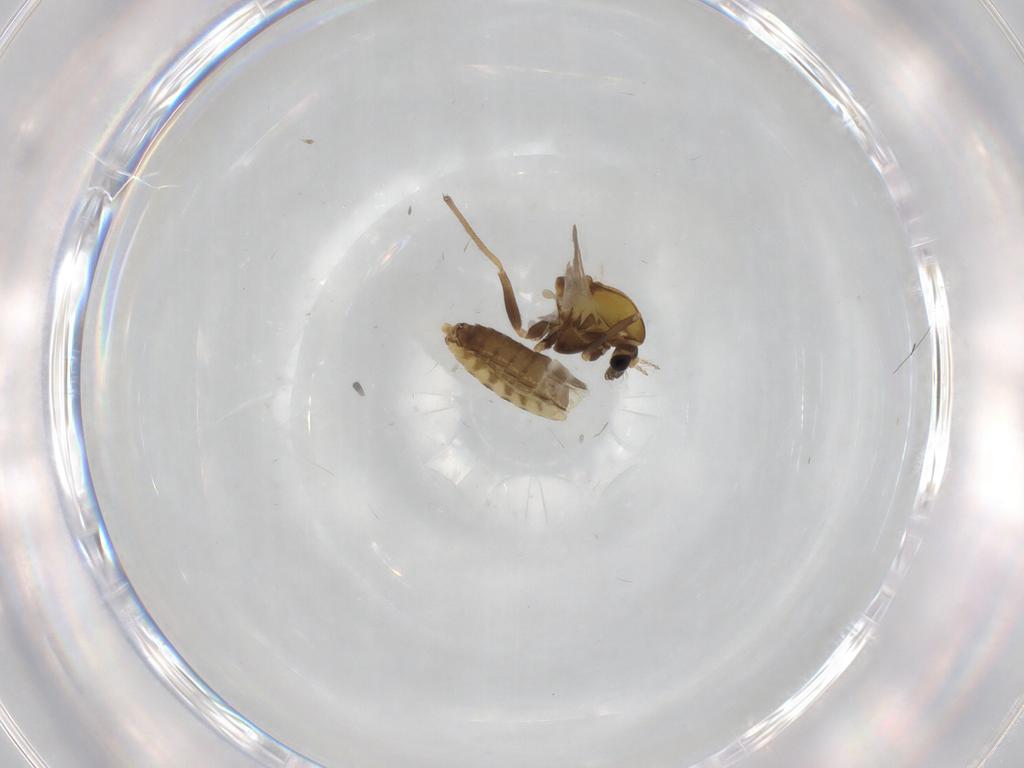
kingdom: Animalia
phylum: Arthropoda
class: Insecta
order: Diptera
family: Chironomidae
